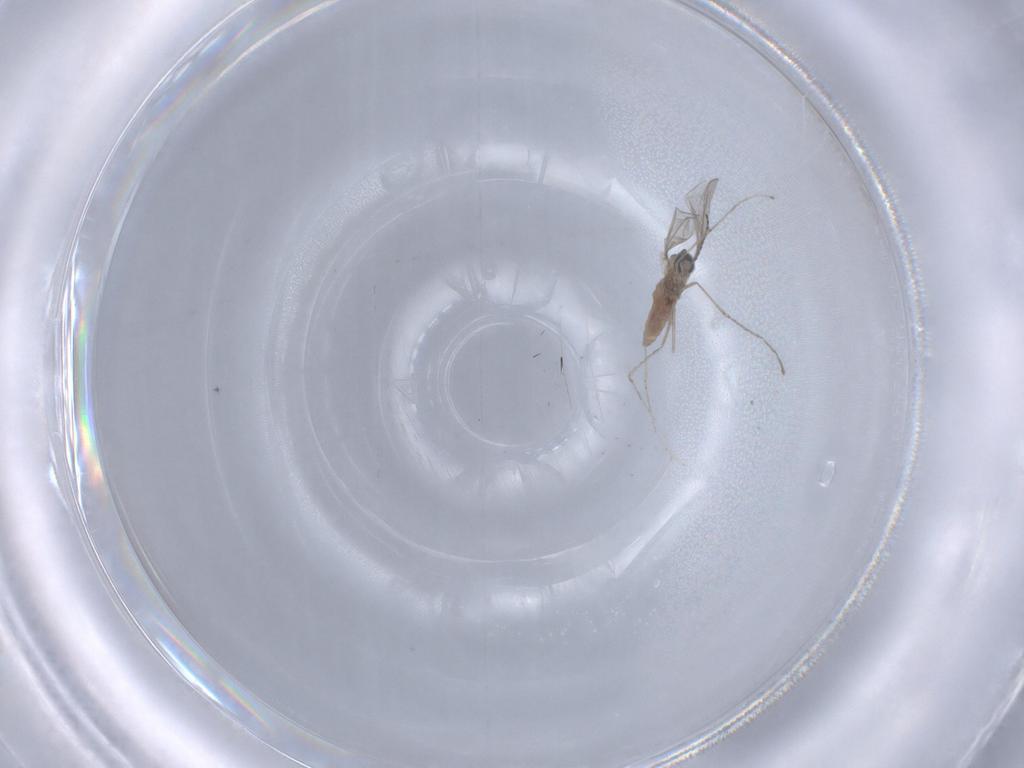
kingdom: Animalia
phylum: Arthropoda
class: Insecta
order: Diptera
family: Cecidomyiidae
